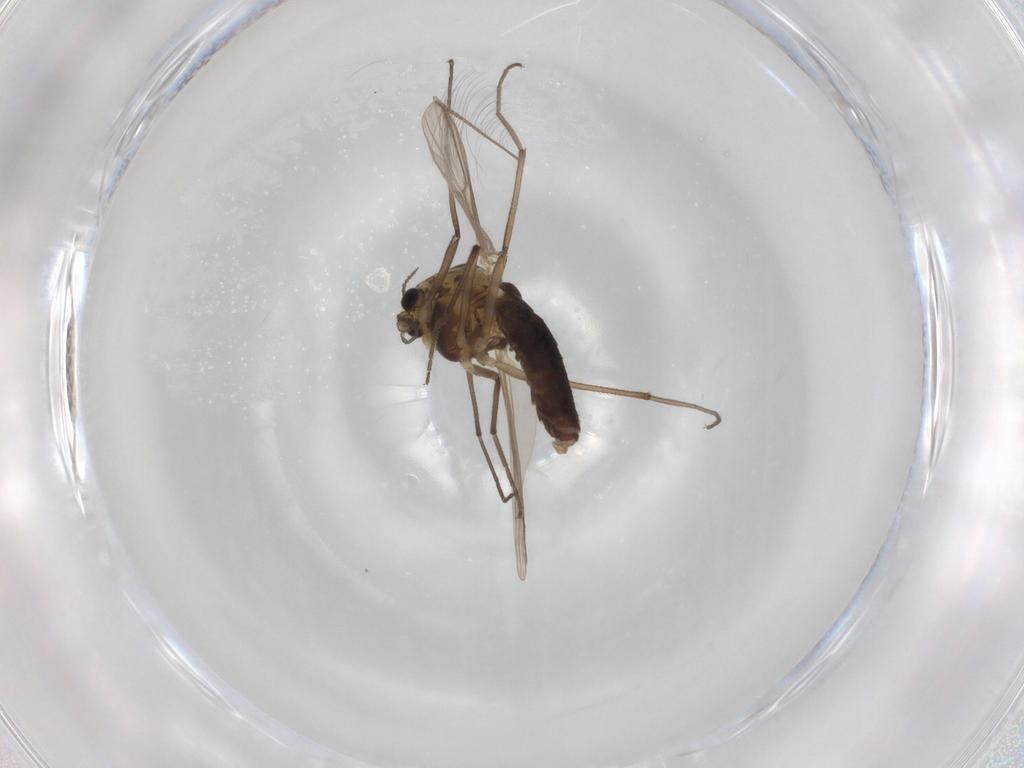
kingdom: Animalia
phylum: Arthropoda
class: Insecta
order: Diptera
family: Chironomidae
